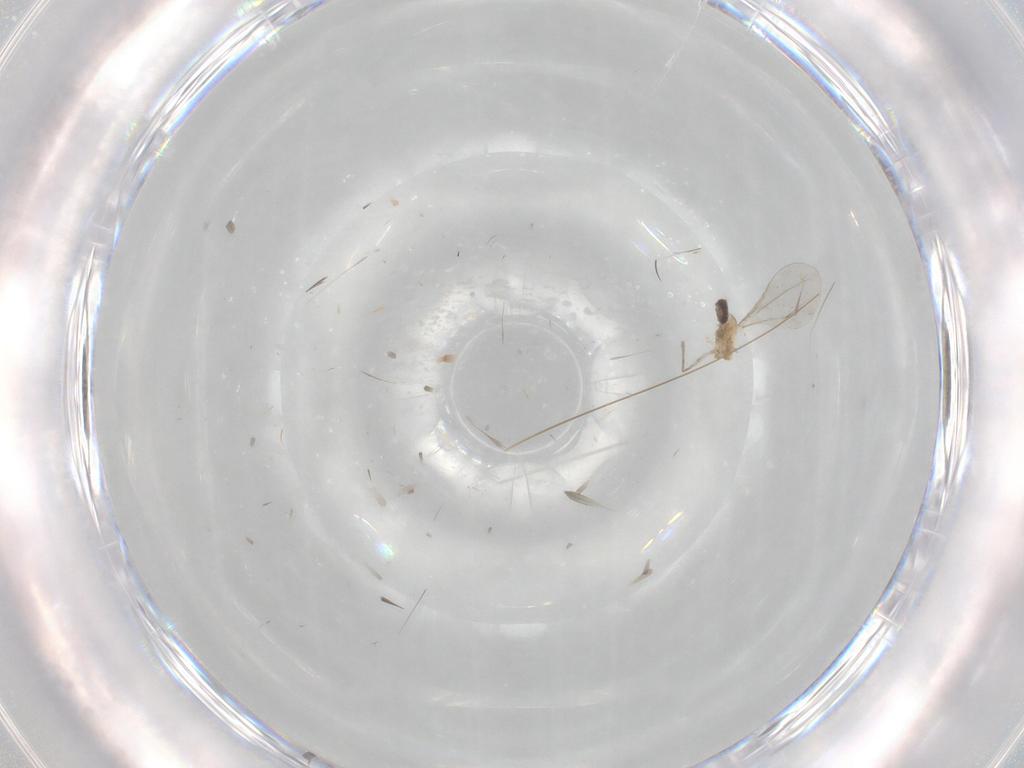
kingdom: Animalia
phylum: Arthropoda
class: Insecta
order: Diptera
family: Cecidomyiidae
